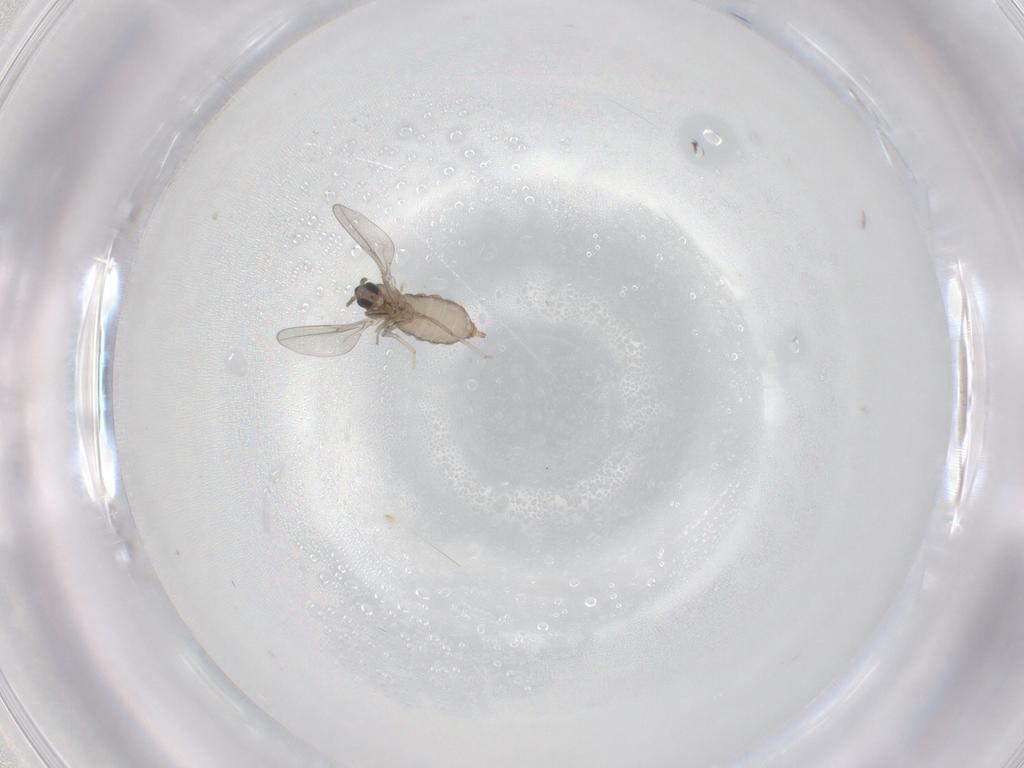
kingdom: Animalia
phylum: Arthropoda
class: Insecta
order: Diptera
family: Cecidomyiidae
